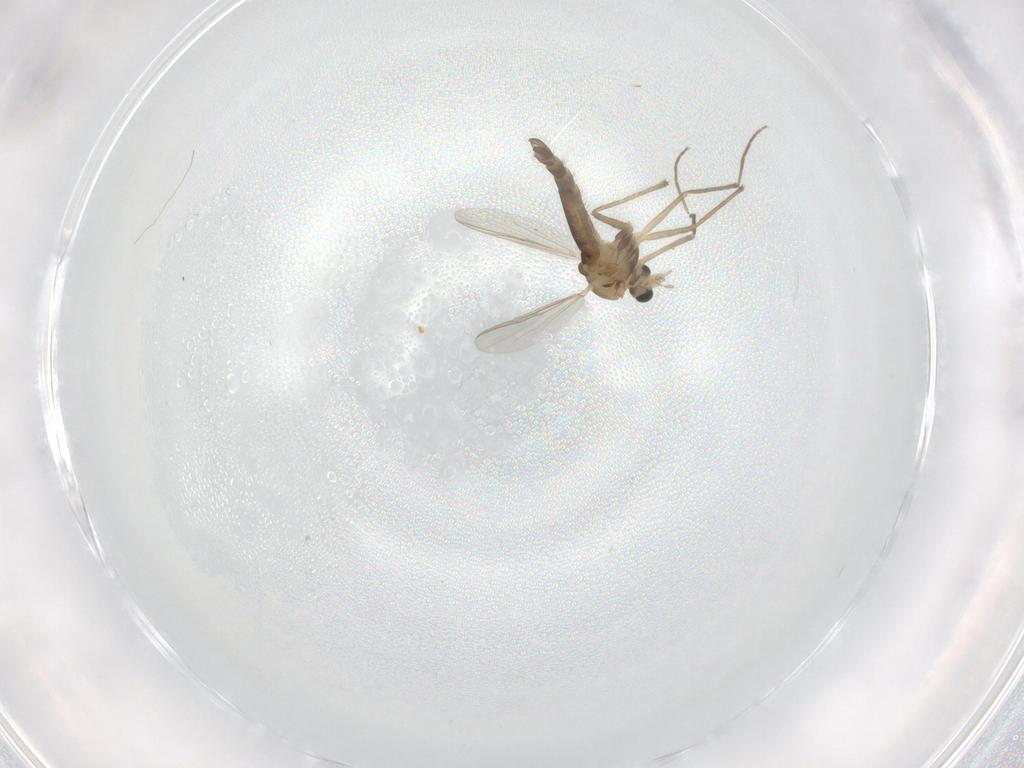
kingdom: Animalia
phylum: Arthropoda
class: Insecta
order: Diptera
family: Chironomidae
